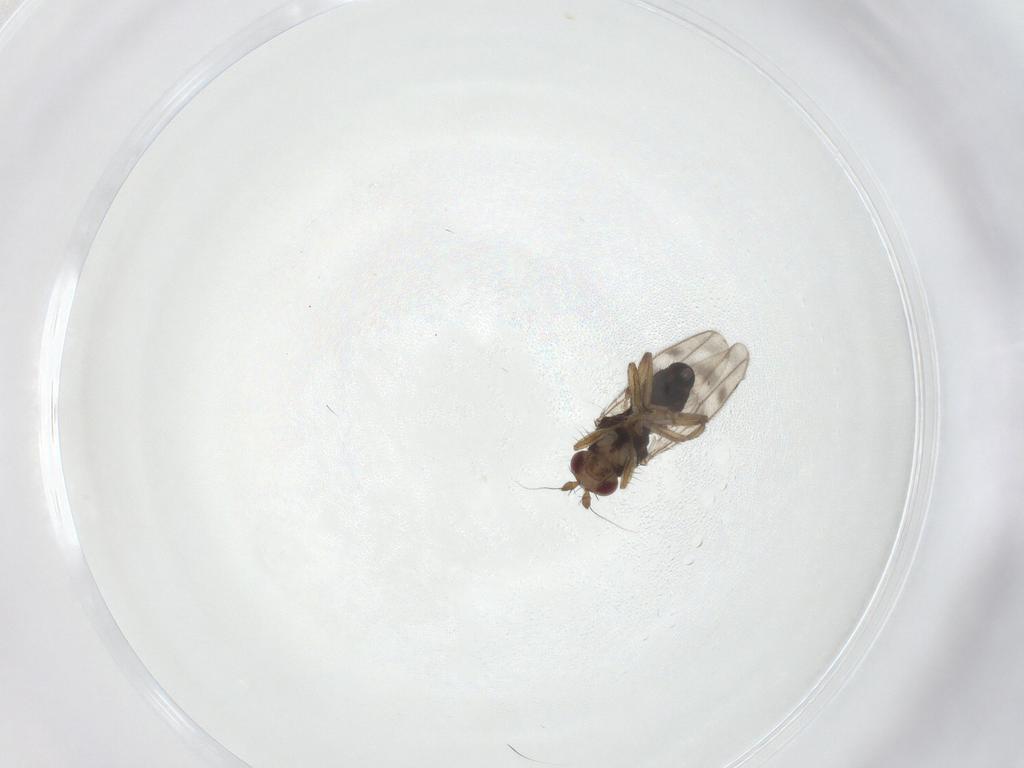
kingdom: Animalia
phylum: Arthropoda
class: Insecta
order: Diptera
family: Sphaeroceridae
